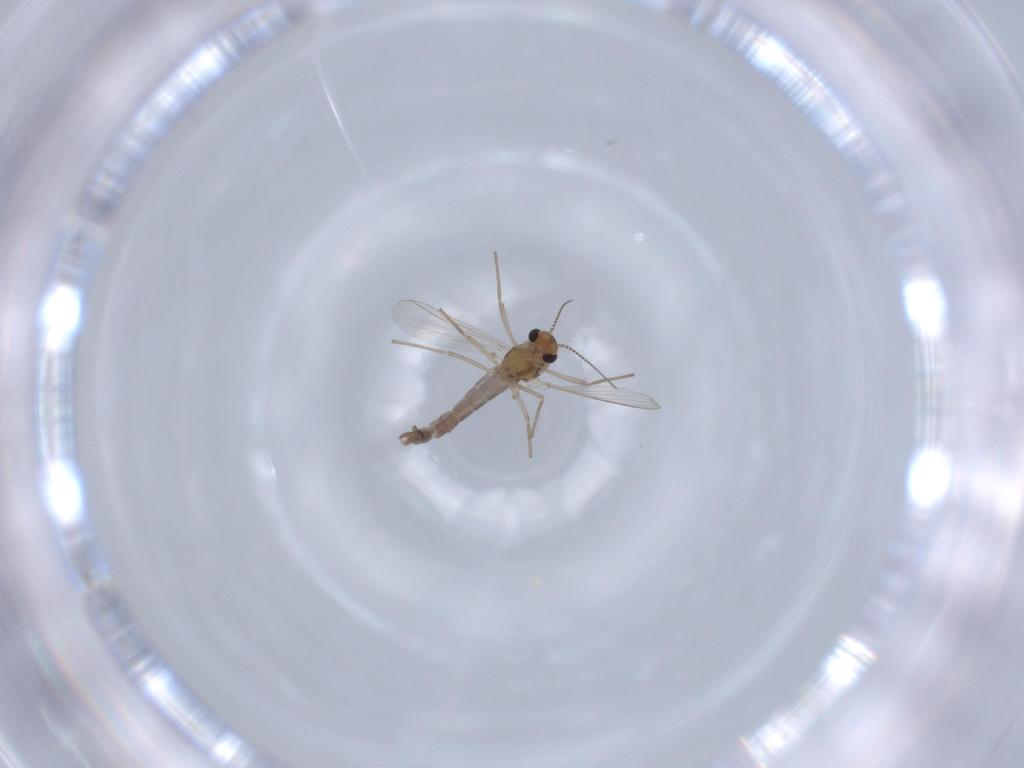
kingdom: Animalia
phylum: Arthropoda
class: Insecta
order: Diptera
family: Chironomidae
